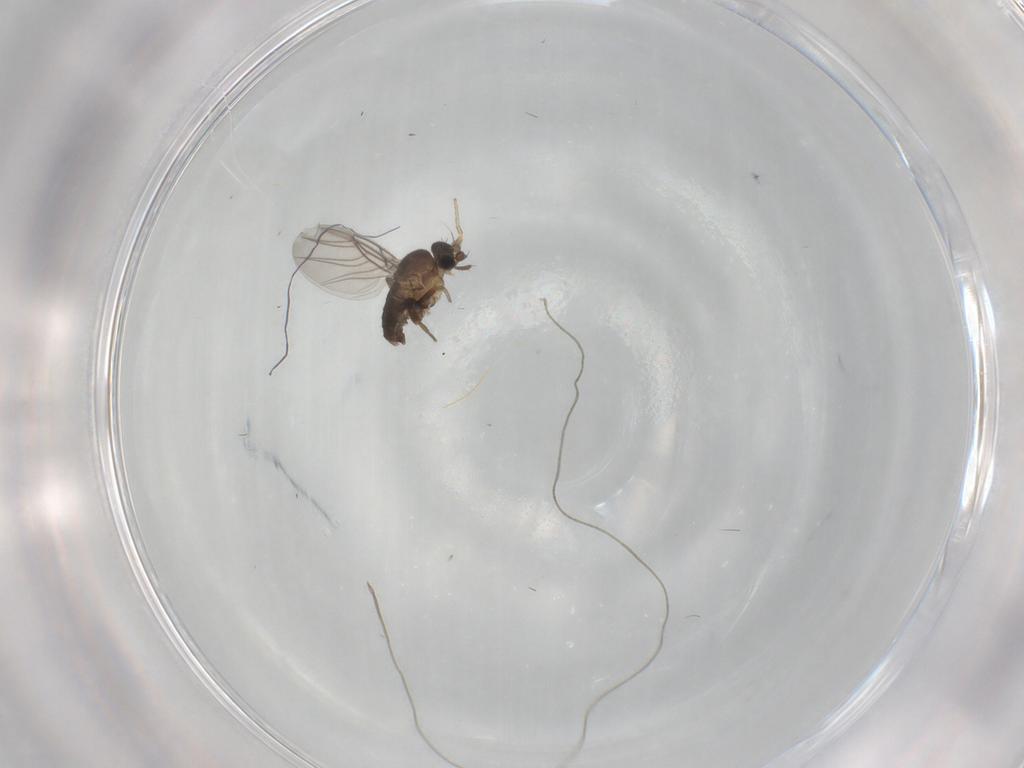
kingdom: Animalia
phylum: Arthropoda
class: Insecta
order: Diptera
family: Phoridae
